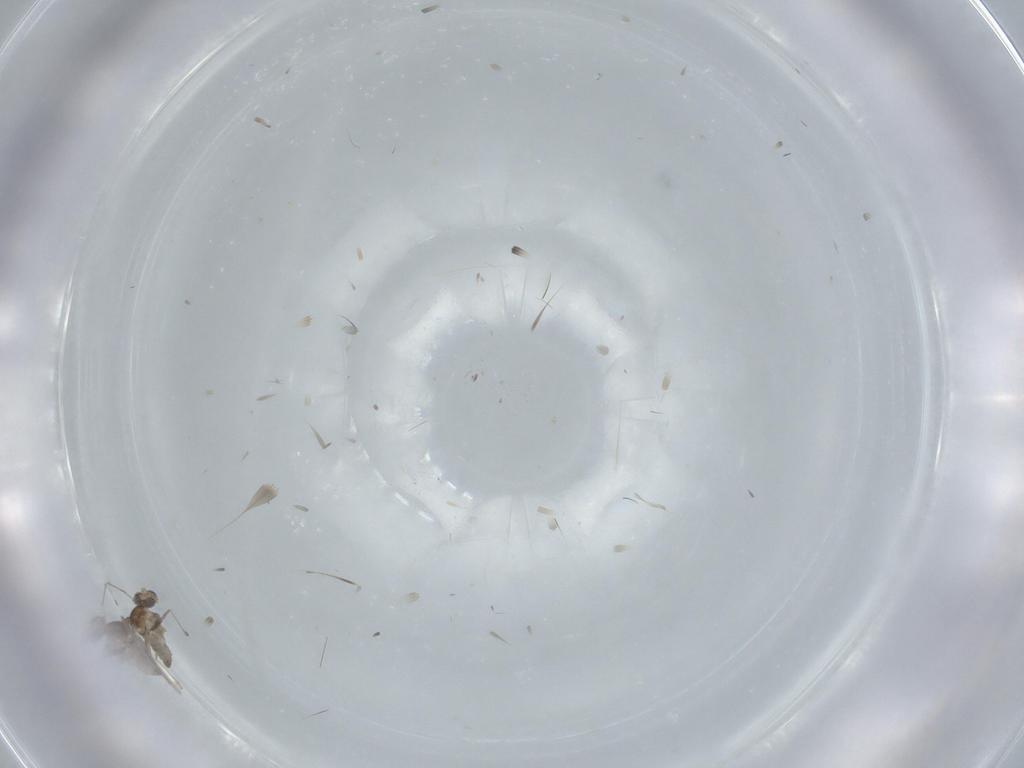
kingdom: Animalia
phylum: Arthropoda
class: Insecta
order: Diptera
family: Cecidomyiidae
